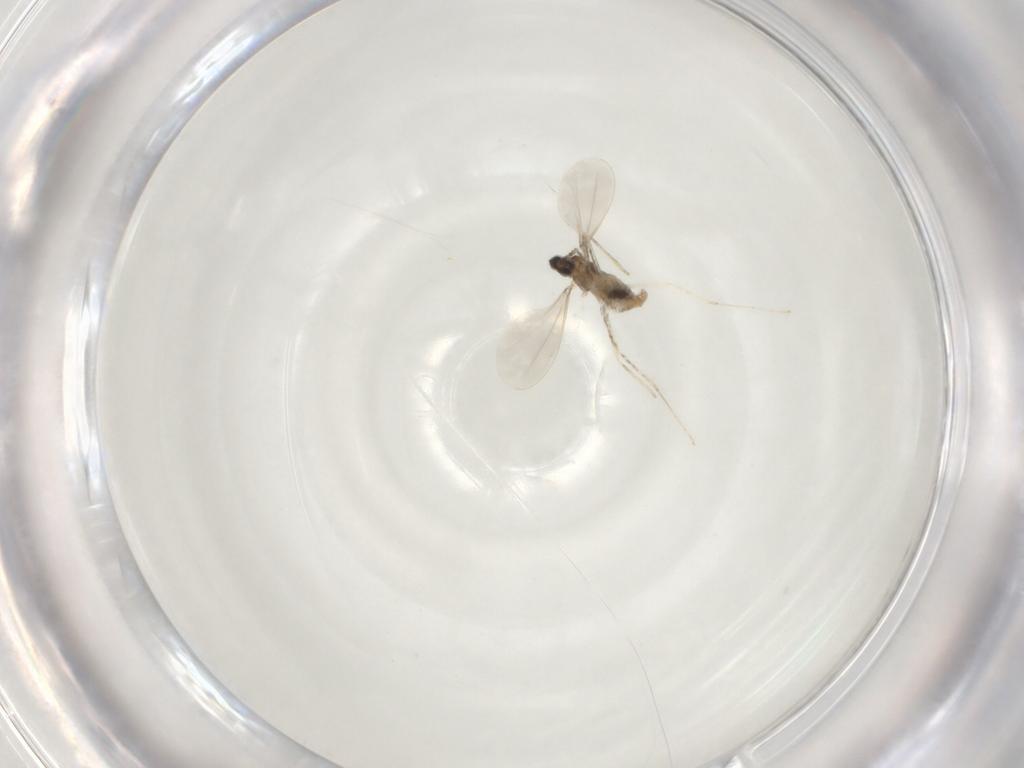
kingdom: Animalia
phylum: Arthropoda
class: Insecta
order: Diptera
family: Cecidomyiidae
